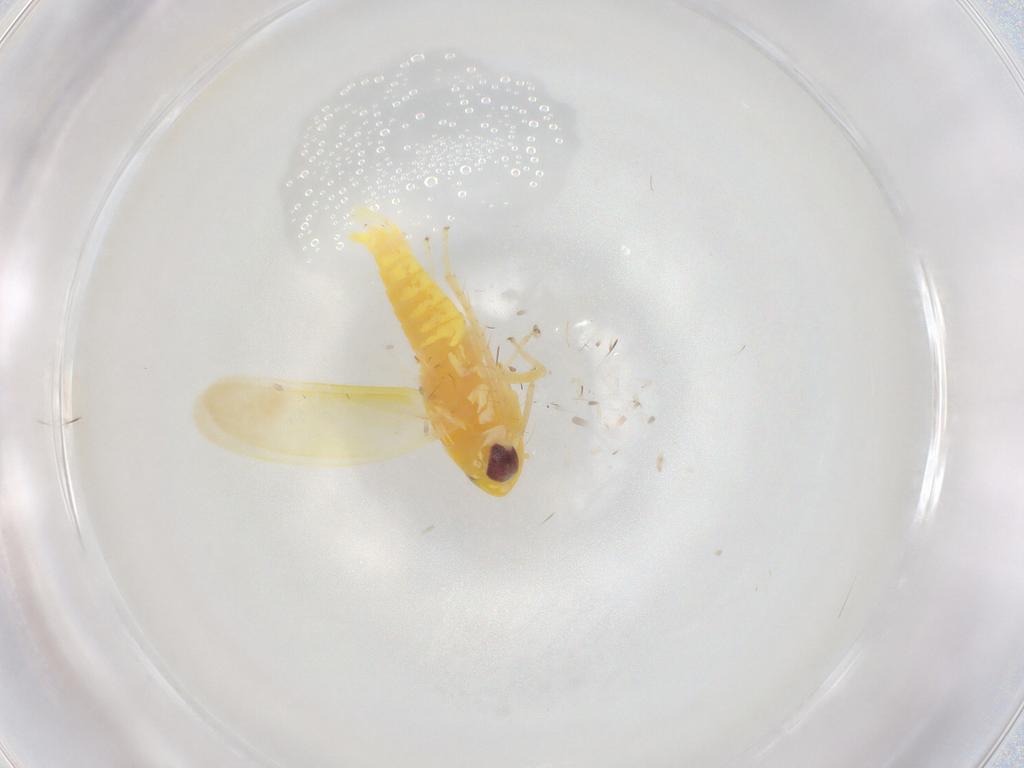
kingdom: Animalia
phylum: Arthropoda
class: Insecta
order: Hemiptera
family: Cicadellidae
